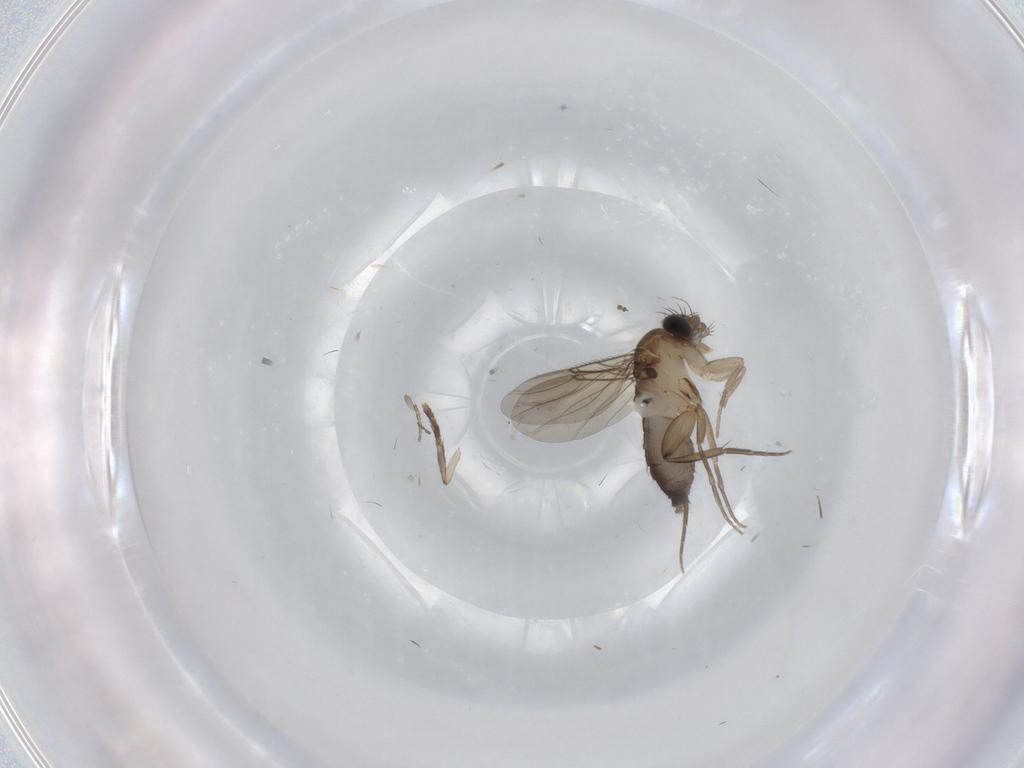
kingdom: Animalia
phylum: Arthropoda
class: Insecta
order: Diptera
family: Phoridae
